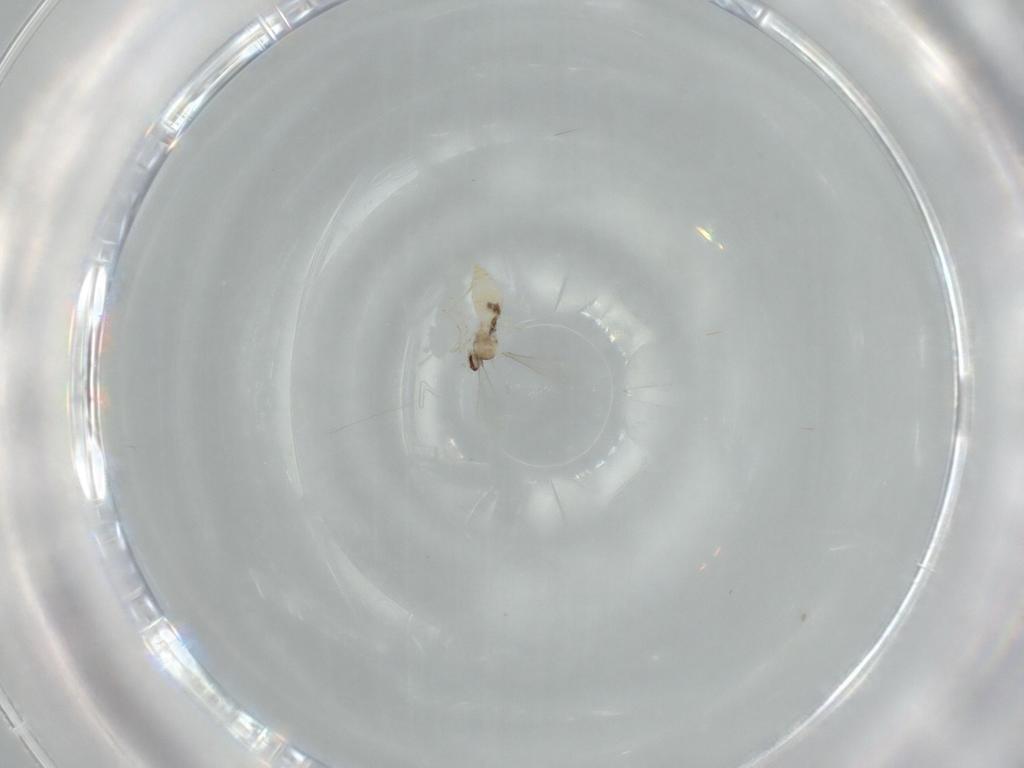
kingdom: Animalia
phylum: Arthropoda
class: Insecta
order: Diptera
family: Cecidomyiidae
